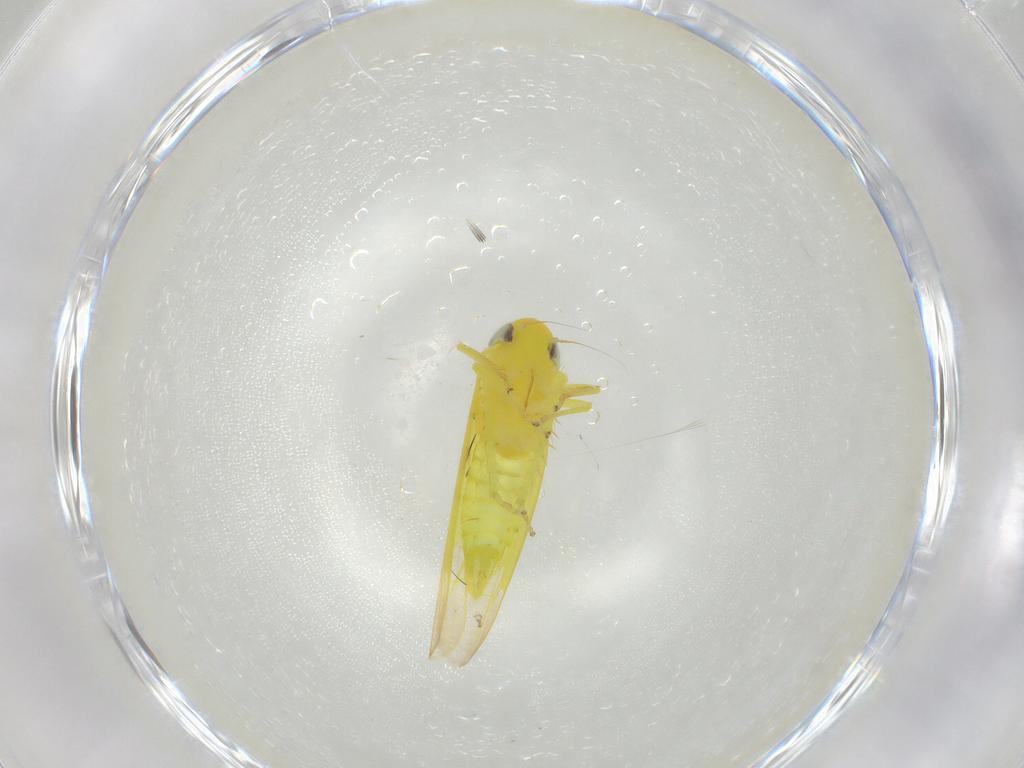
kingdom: Animalia
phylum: Arthropoda
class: Insecta
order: Hemiptera
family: Cicadellidae
